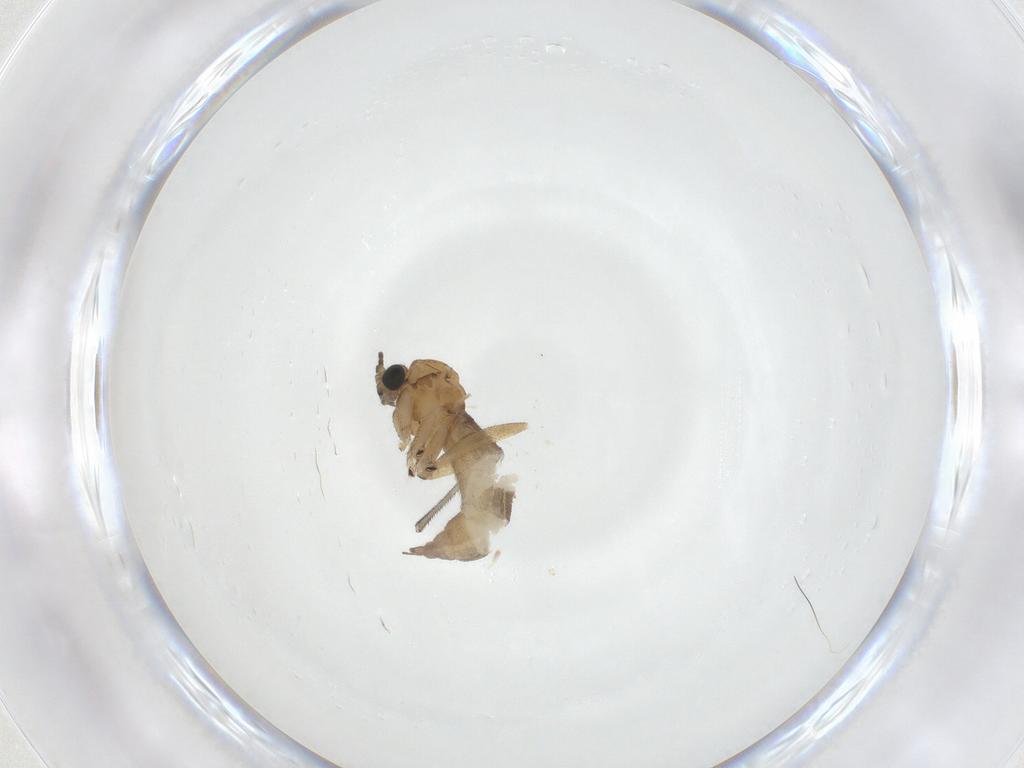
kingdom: Animalia
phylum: Arthropoda
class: Insecta
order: Diptera
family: Sciaridae
